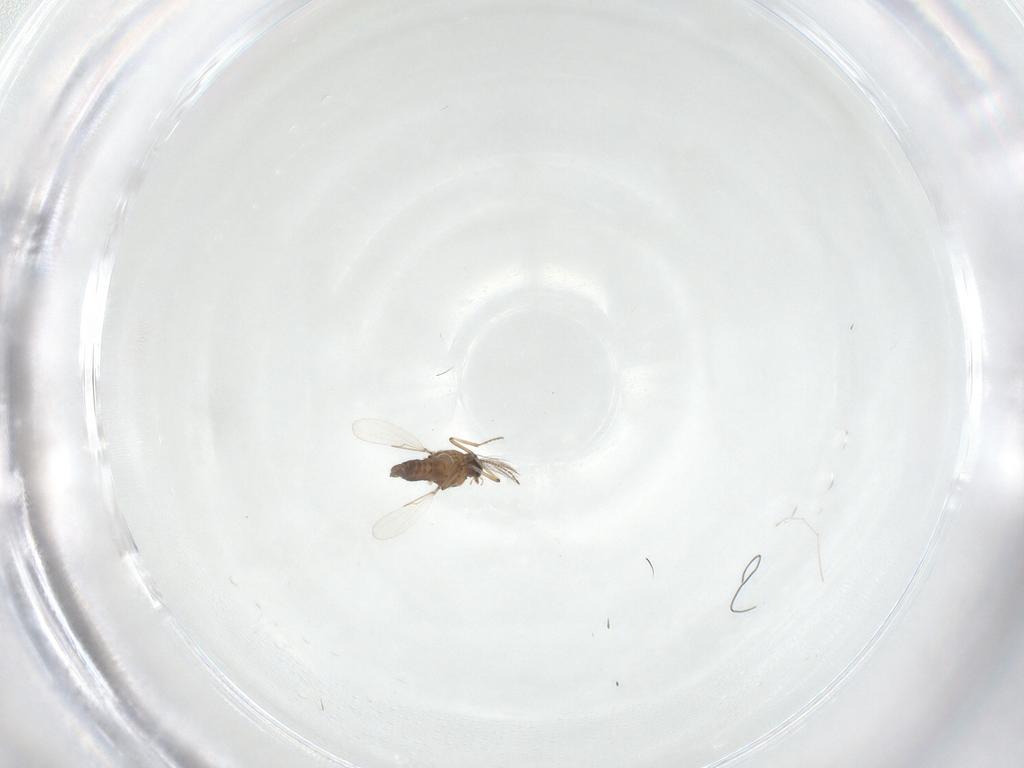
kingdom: Animalia
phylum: Arthropoda
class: Insecta
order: Diptera
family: Ceratopogonidae
